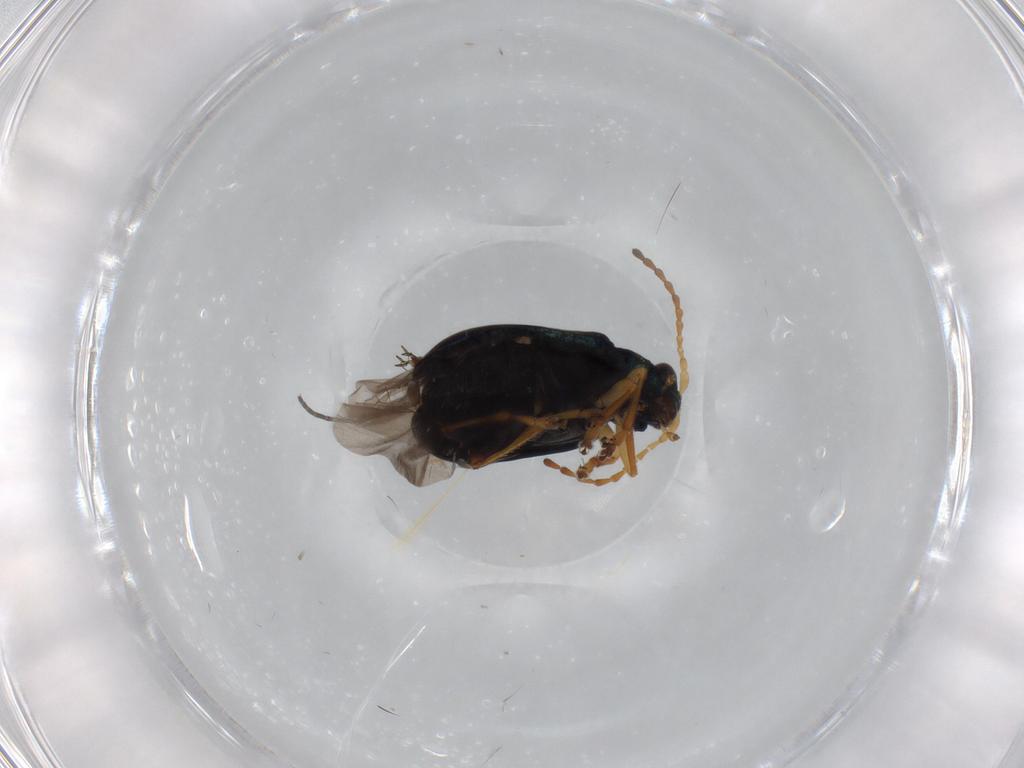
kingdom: Animalia
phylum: Arthropoda
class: Insecta
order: Coleoptera
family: Chrysomelidae
